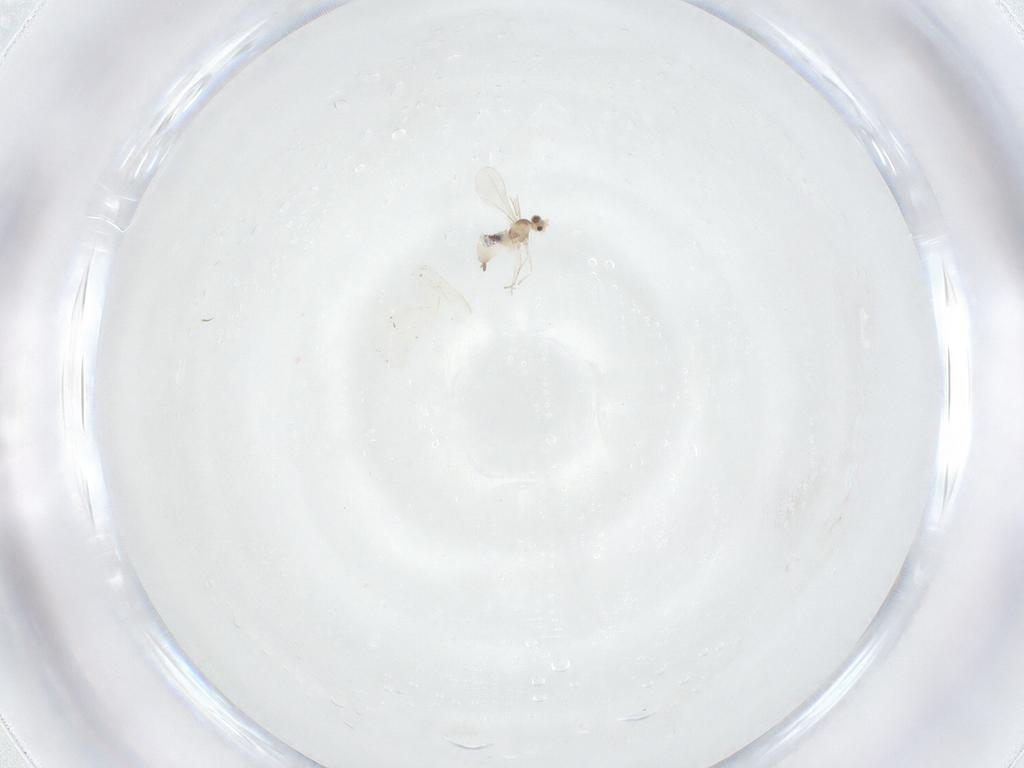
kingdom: Animalia
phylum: Arthropoda
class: Insecta
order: Diptera
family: Cecidomyiidae
